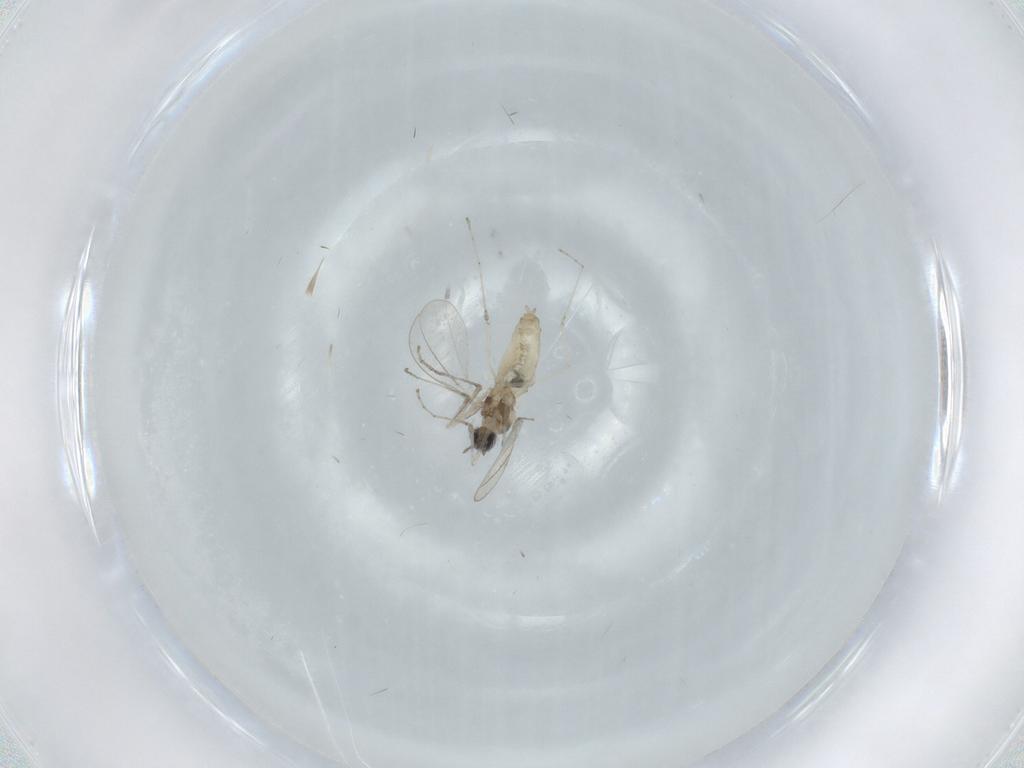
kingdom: Animalia
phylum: Arthropoda
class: Insecta
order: Diptera
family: Cecidomyiidae
